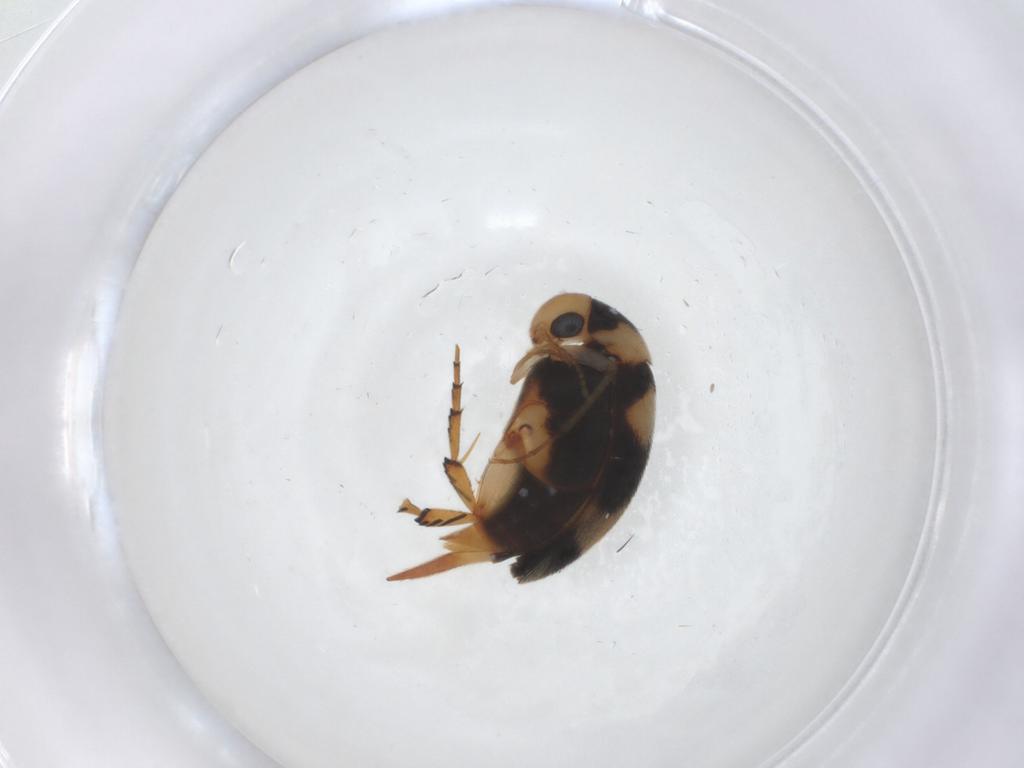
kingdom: Animalia
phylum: Arthropoda
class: Insecta
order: Coleoptera
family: Mordellidae
